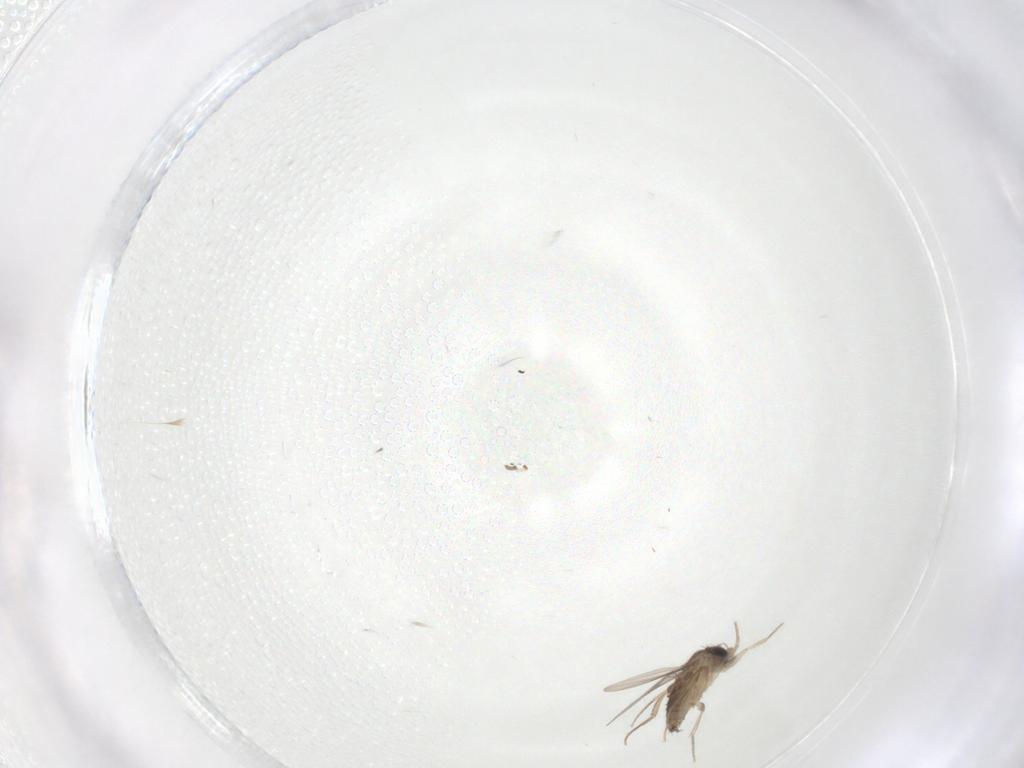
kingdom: Animalia
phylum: Arthropoda
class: Insecta
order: Diptera
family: Phoridae
